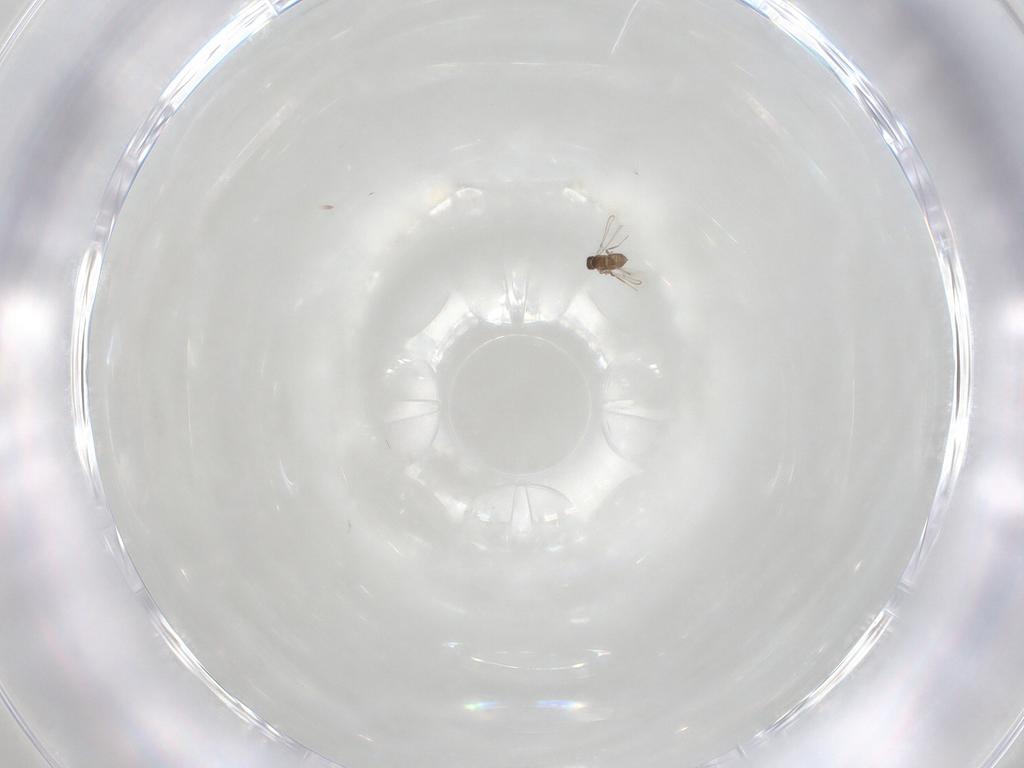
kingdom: Animalia
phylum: Arthropoda
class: Insecta
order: Hymenoptera
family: Mymaridae
